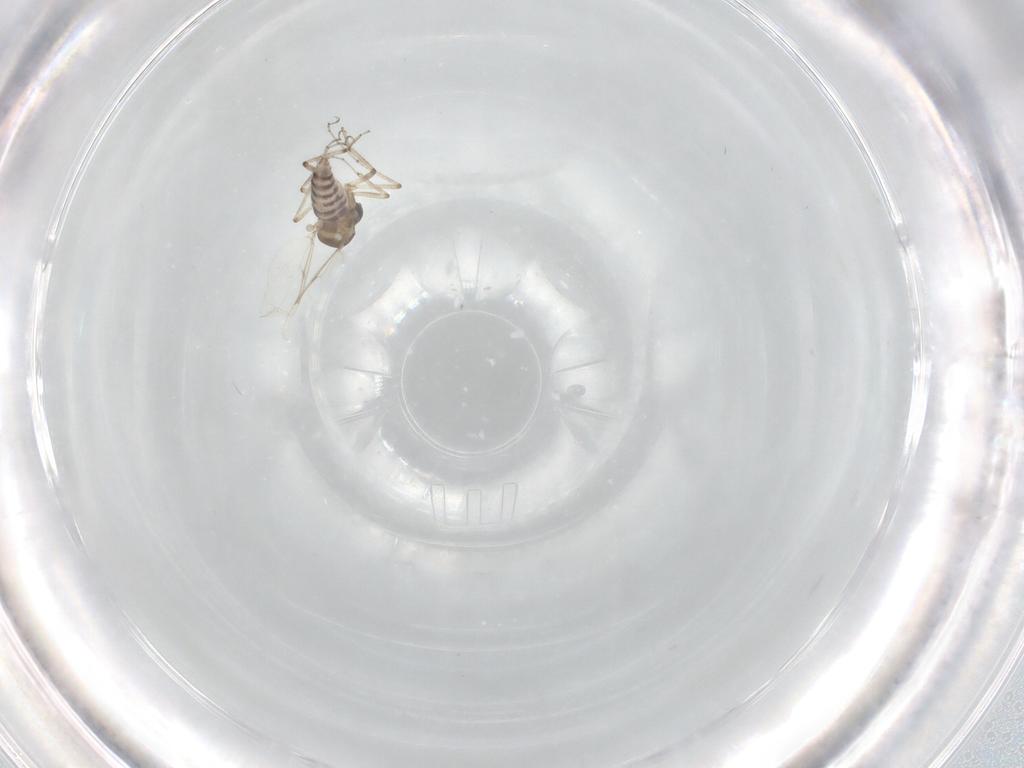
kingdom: Animalia
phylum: Arthropoda
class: Insecta
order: Diptera
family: Ceratopogonidae
